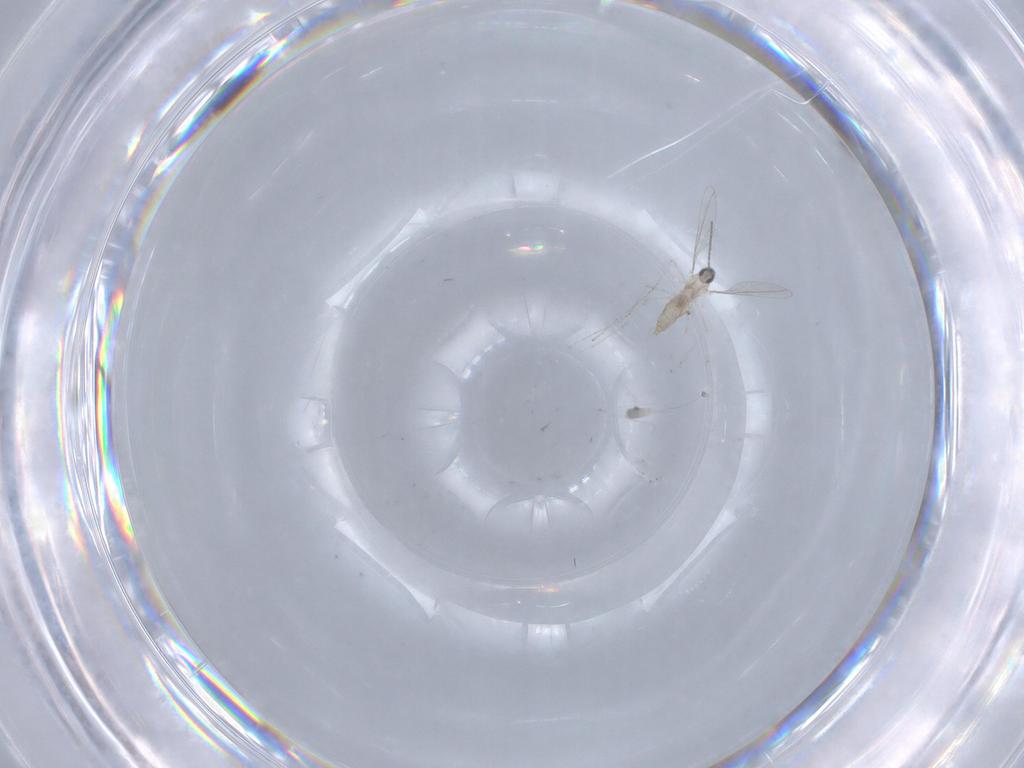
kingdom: Animalia
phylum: Arthropoda
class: Insecta
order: Diptera
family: Cecidomyiidae
